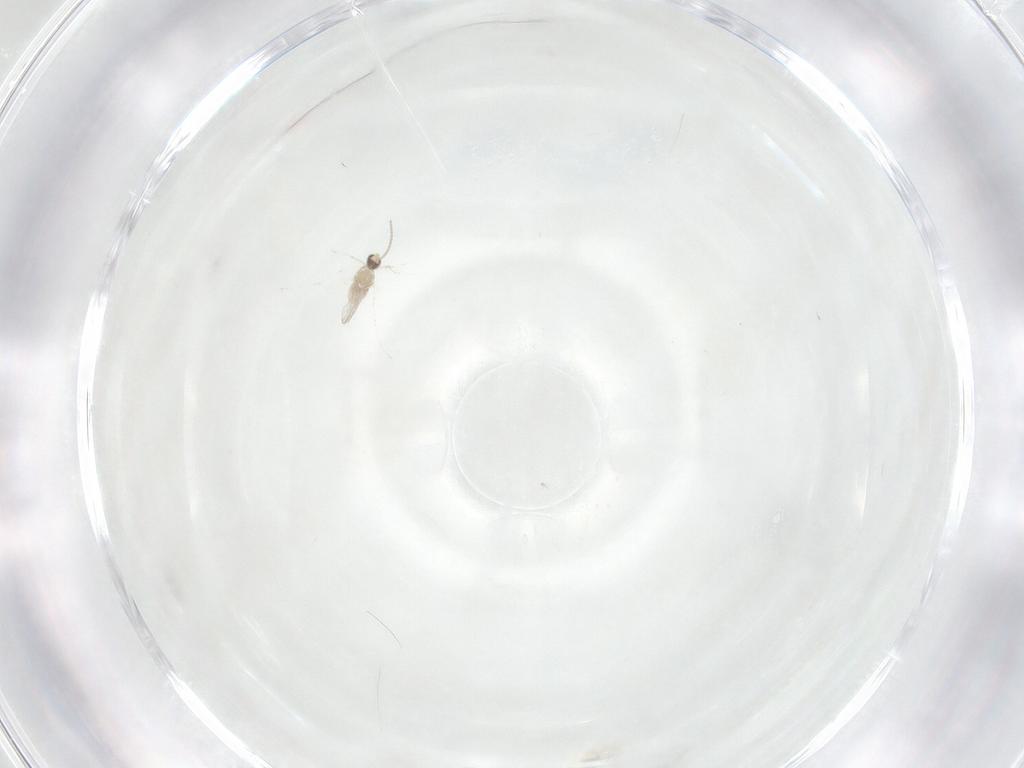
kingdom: Animalia
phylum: Arthropoda
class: Insecta
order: Diptera
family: Cecidomyiidae
